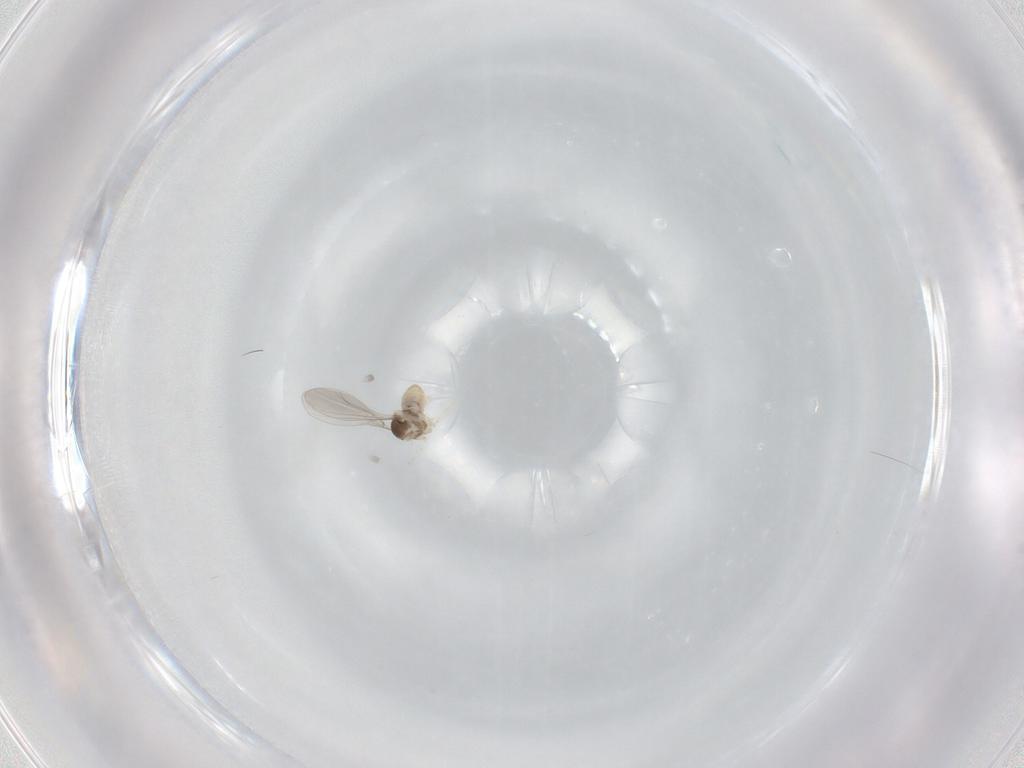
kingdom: Animalia
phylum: Arthropoda
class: Insecta
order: Diptera
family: Cecidomyiidae
